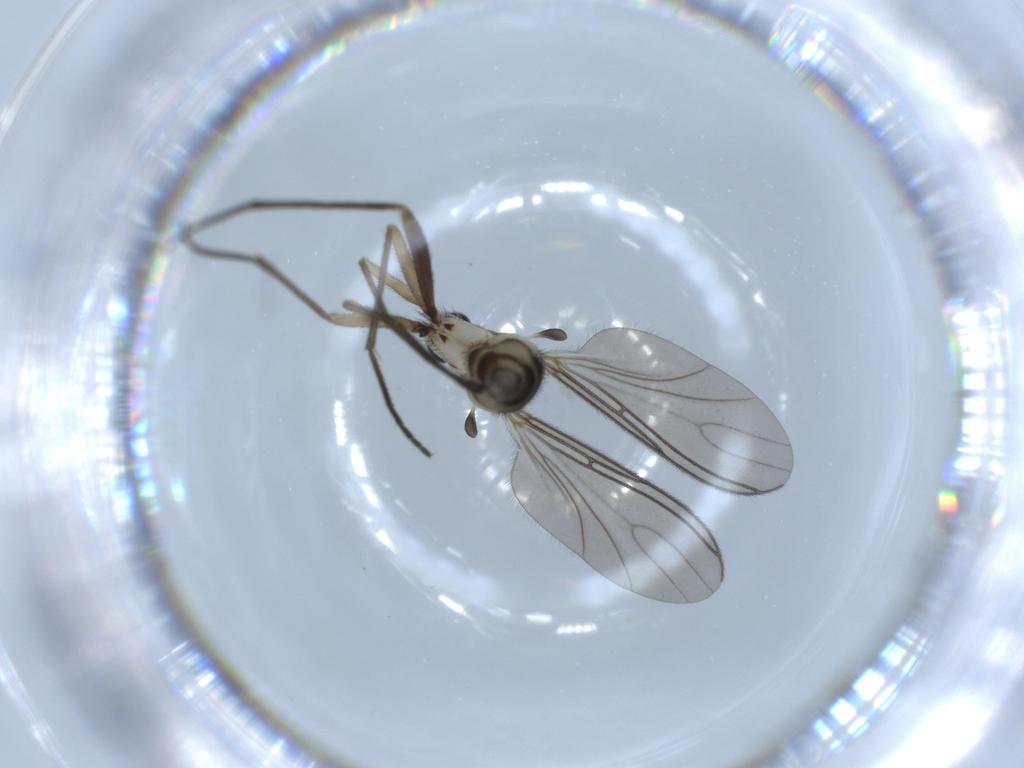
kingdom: Animalia
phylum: Arthropoda
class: Insecta
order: Diptera
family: Sciaridae
